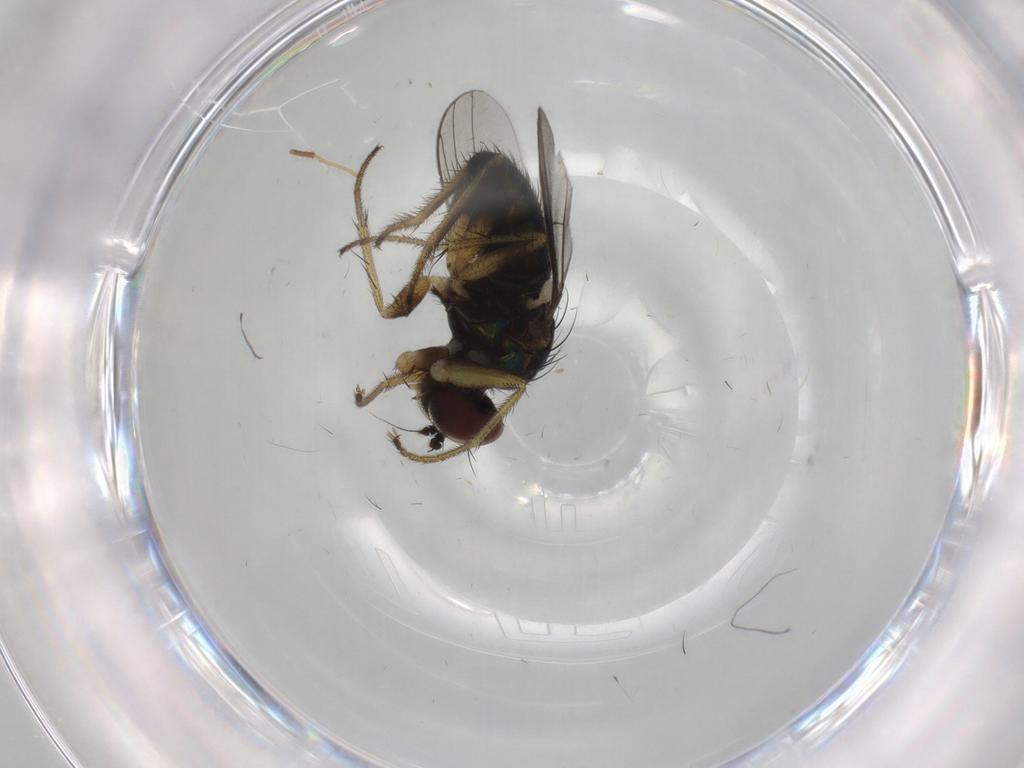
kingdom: Animalia
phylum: Arthropoda
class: Insecta
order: Diptera
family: Dolichopodidae
